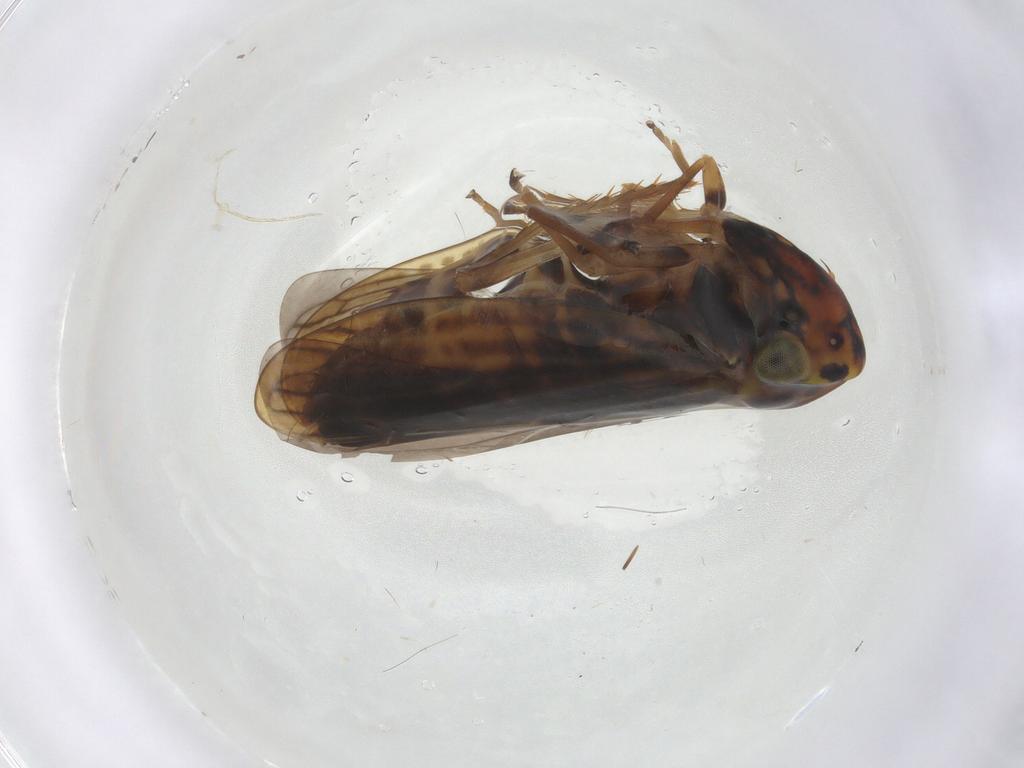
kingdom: Animalia
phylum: Arthropoda
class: Insecta
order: Hemiptera
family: Cicadellidae
